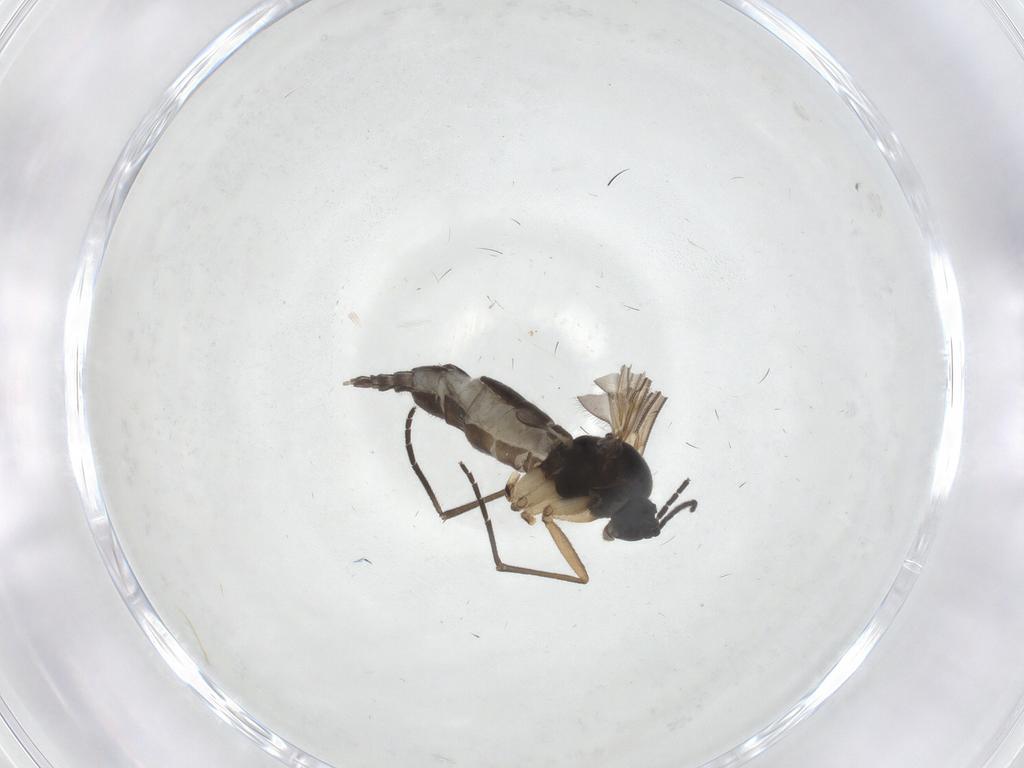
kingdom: Animalia
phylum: Arthropoda
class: Insecta
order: Diptera
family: Sciaridae
